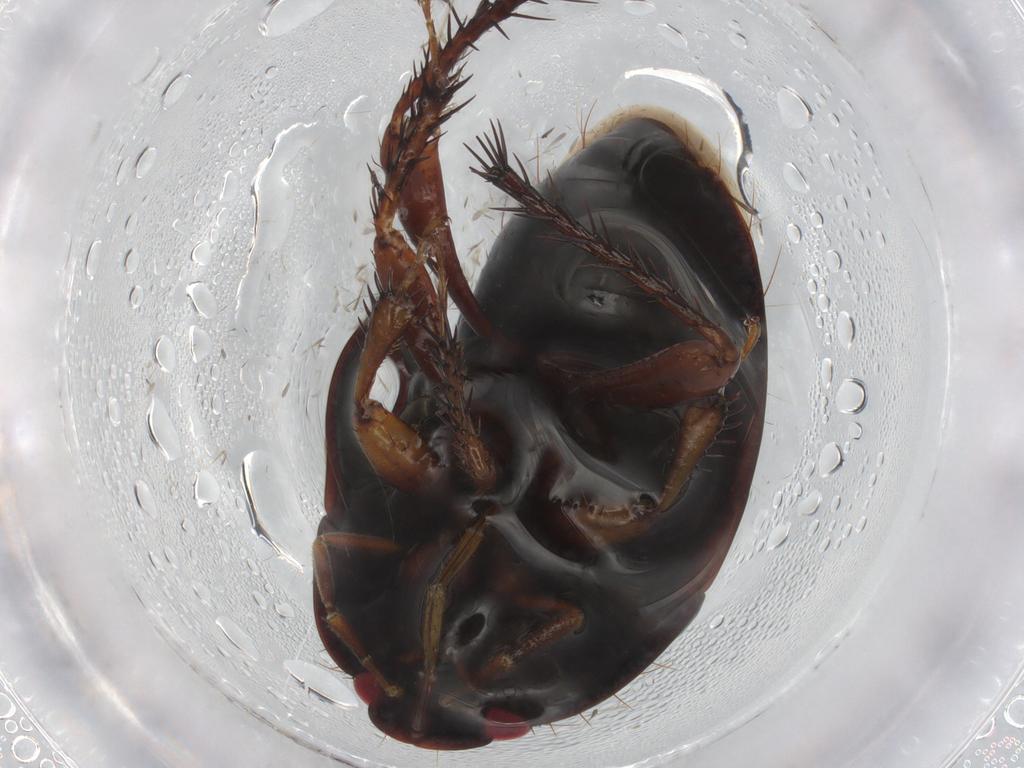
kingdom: Animalia
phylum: Arthropoda
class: Insecta
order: Hemiptera
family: Cydnidae
